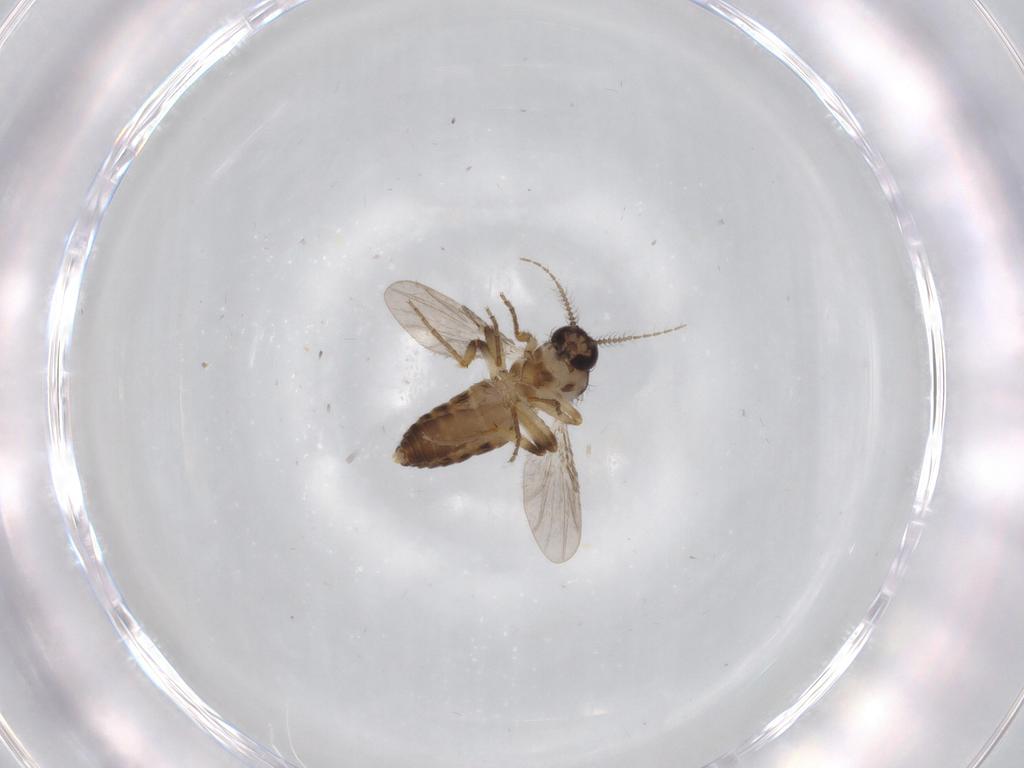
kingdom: Animalia
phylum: Arthropoda
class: Insecta
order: Diptera
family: Ceratopogonidae
